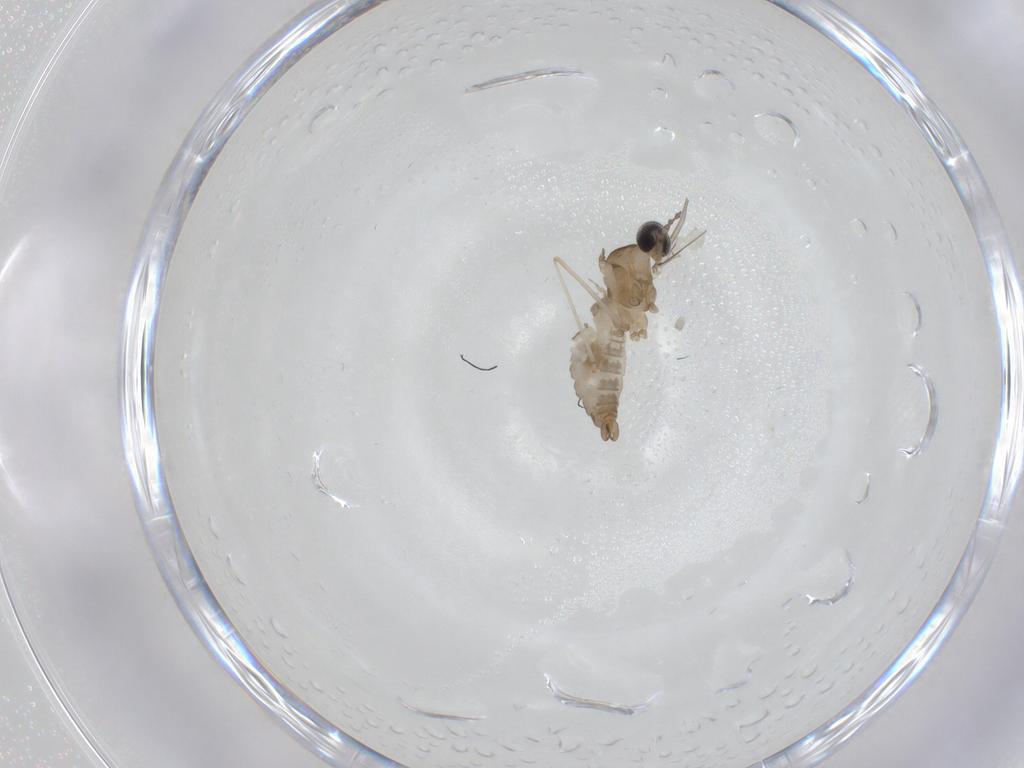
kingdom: Animalia
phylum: Arthropoda
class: Insecta
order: Diptera
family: Cecidomyiidae
